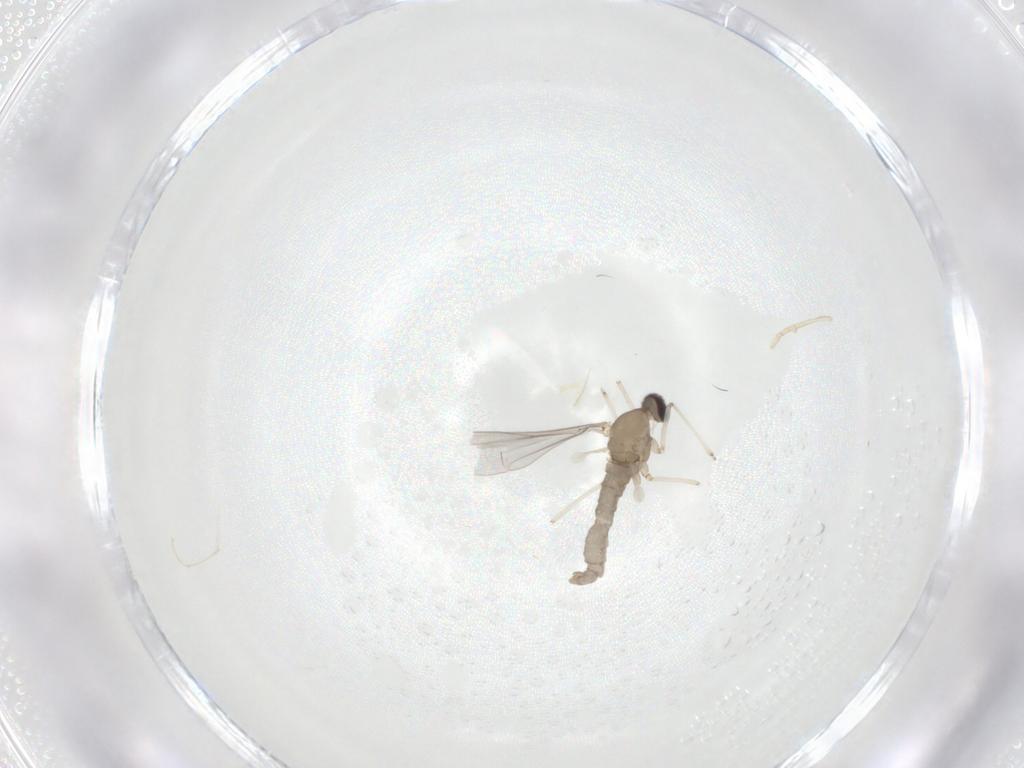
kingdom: Animalia
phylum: Arthropoda
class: Insecta
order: Diptera
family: Cecidomyiidae
